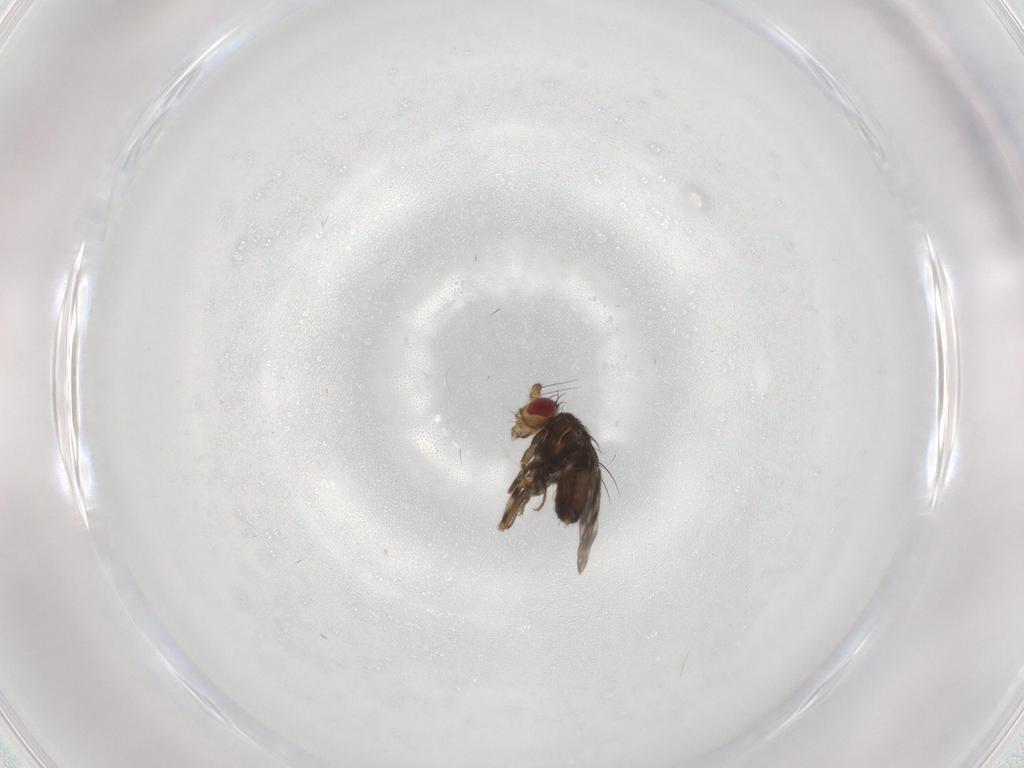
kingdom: Animalia
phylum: Arthropoda
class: Insecta
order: Diptera
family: Sphaeroceridae
